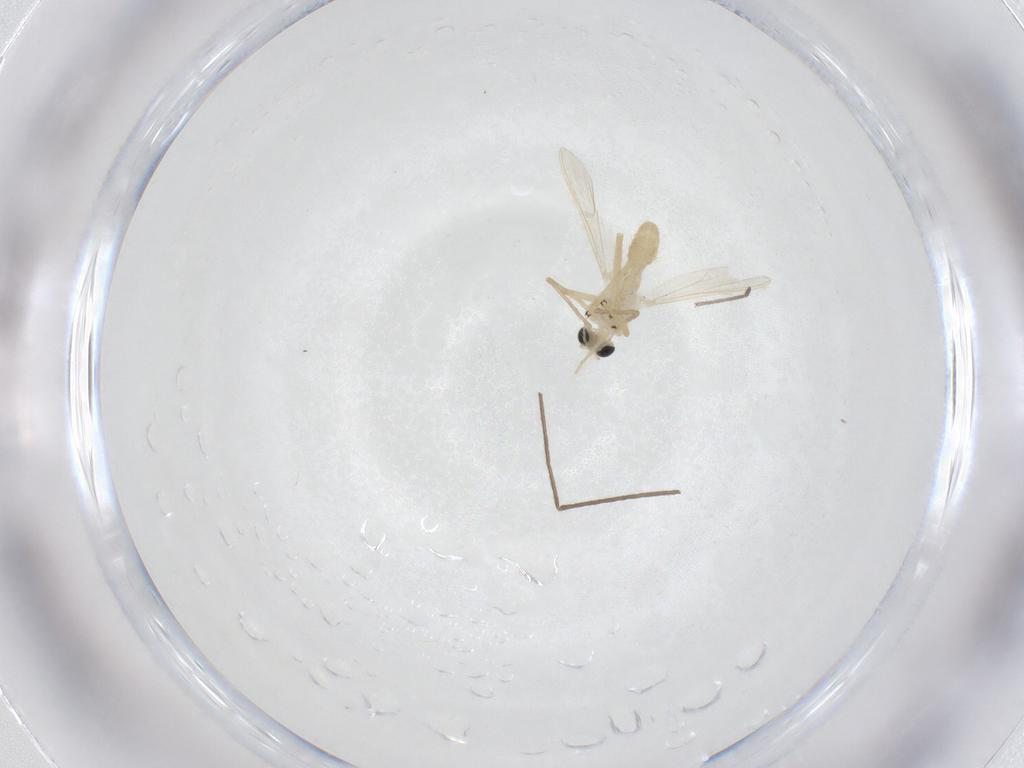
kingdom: Animalia
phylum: Arthropoda
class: Insecta
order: Diptera
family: Chironomidae
